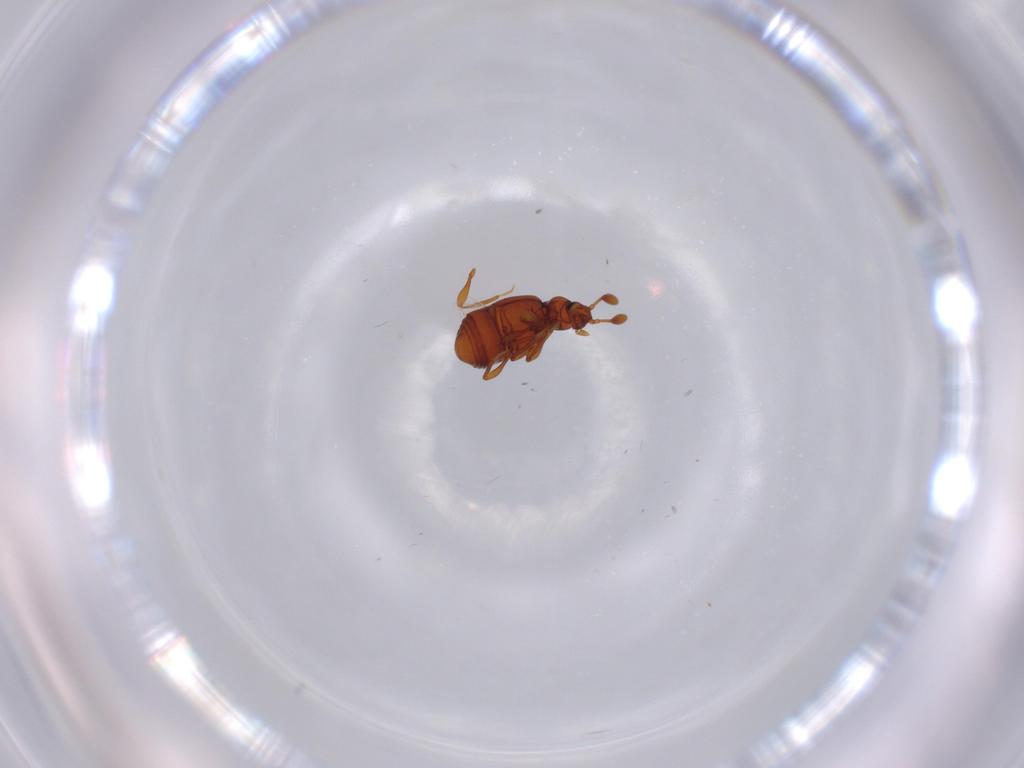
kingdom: Animalia
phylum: Arthropoda
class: Insecta
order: Coleoptera
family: Staphylinidae
